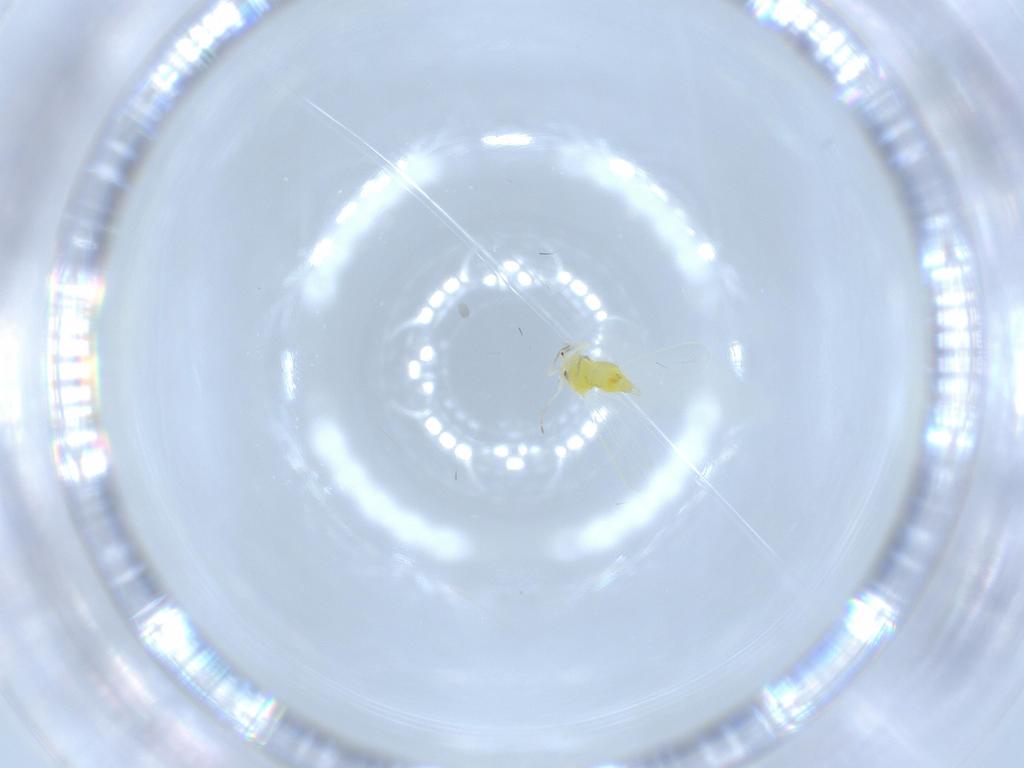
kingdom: Animalia
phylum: Arthropoda
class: Insecta
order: Hemiptera
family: Aleyrodidae
